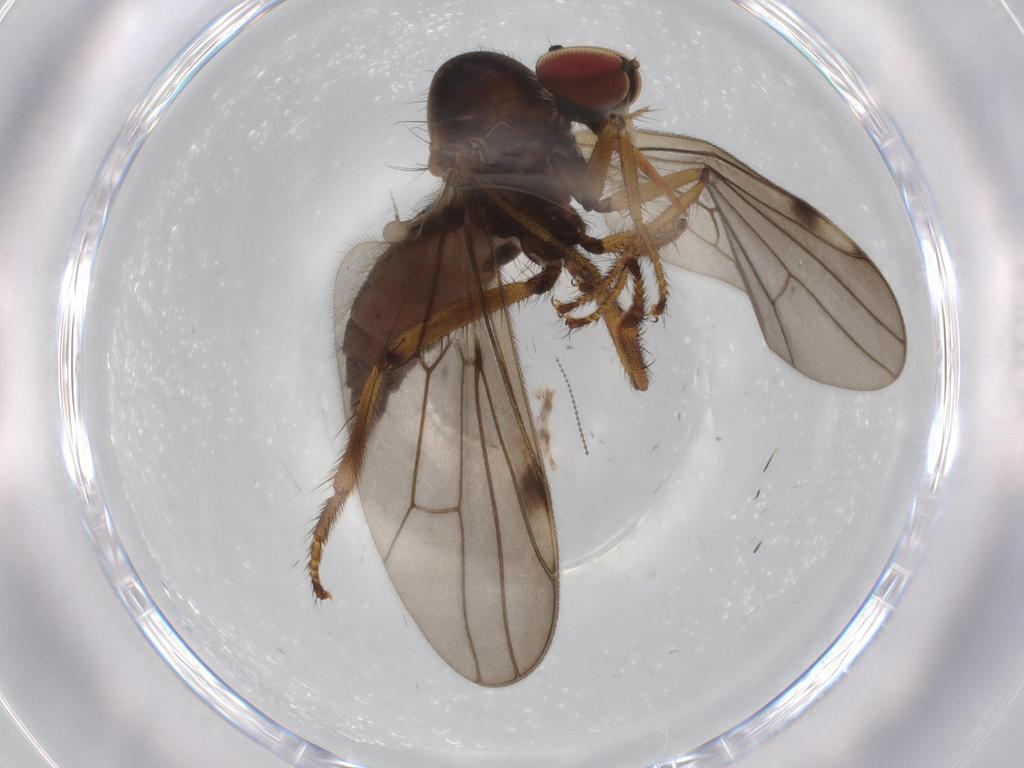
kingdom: Animalia
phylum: Arthropoda
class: Insecta
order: Diptera
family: Hybotidae
